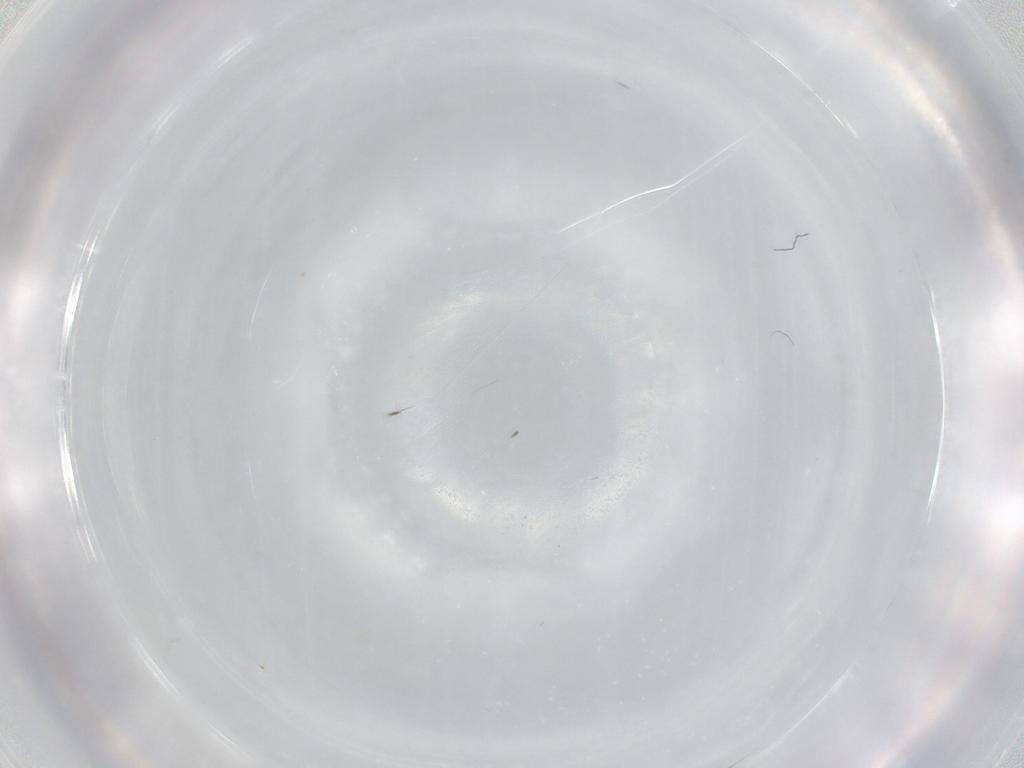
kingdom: Animalia
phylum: Arthropoda
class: Insecta
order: Diptera
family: Drosophilidae
